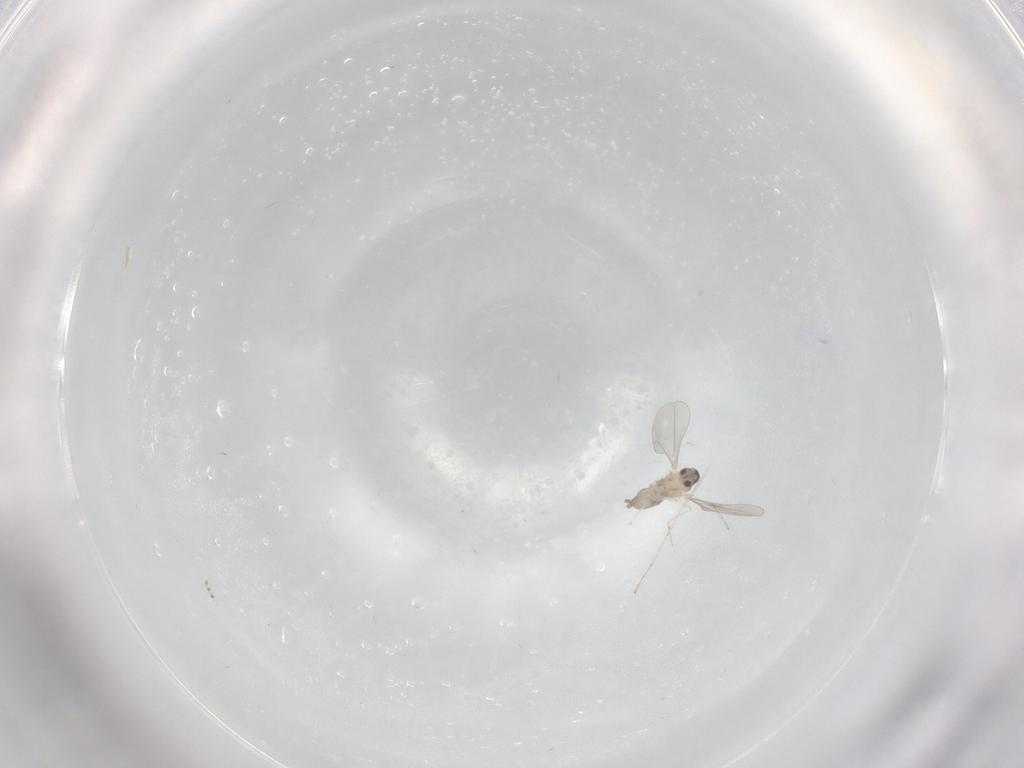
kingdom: Animalia
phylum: Arthropoda
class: Insecta
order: Diptera
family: Cecidomyiidae
